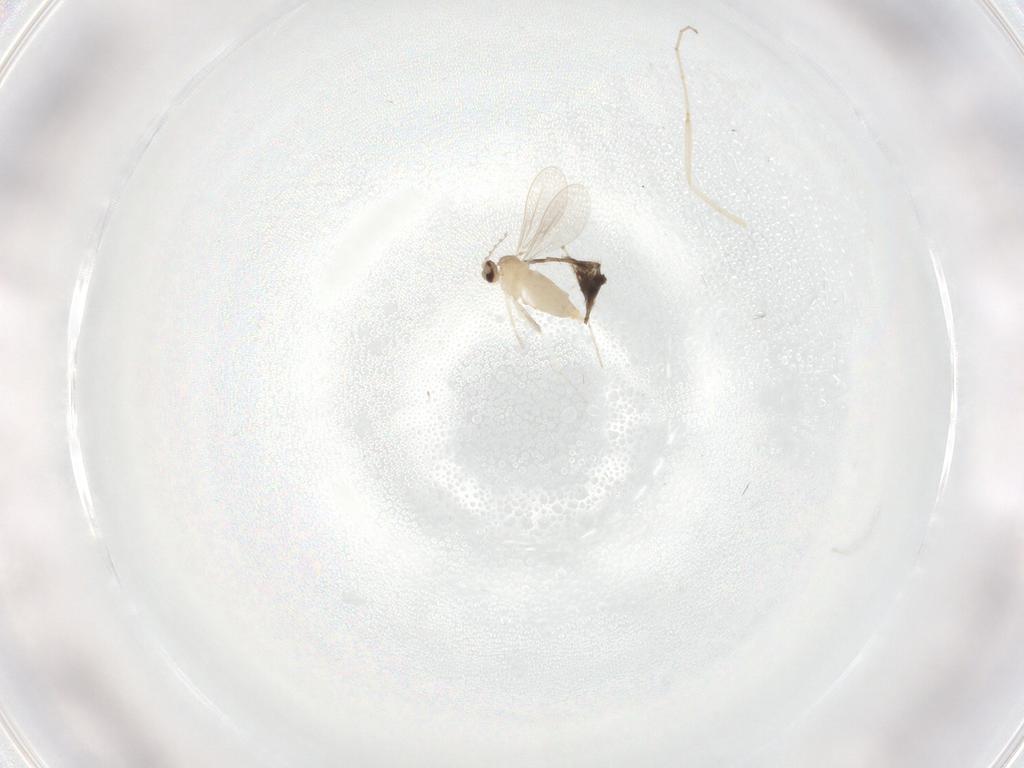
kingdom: Animalia
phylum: Arthropoda
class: Insecta
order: Diptera
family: Cecidomyiidae
